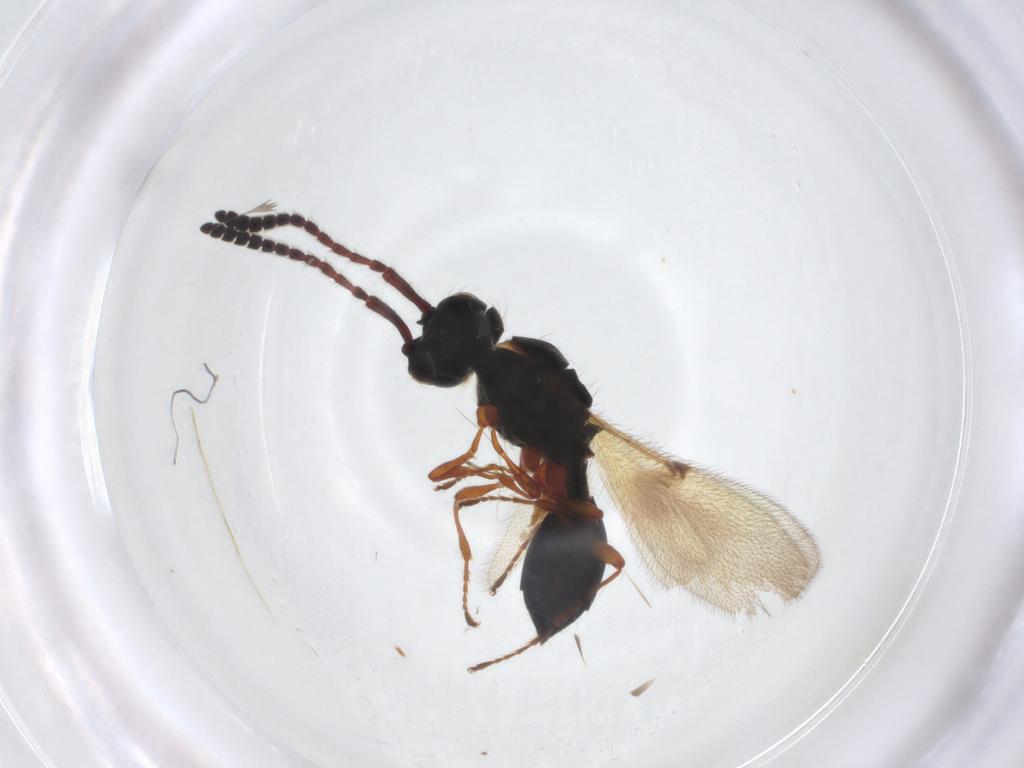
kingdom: Animalia
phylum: Arthropoda
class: Insecta
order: Hymenoptera
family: Diapriidae
